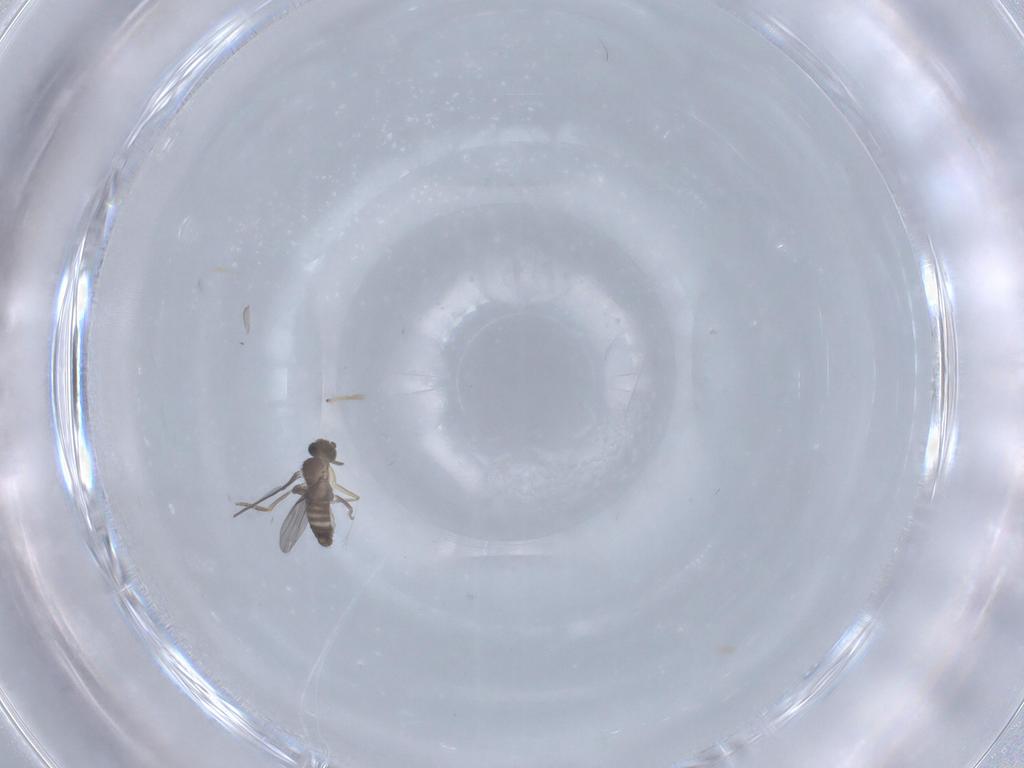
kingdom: Animalia
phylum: Arthropoda
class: Insecta
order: Diptera
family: Chironomidae
